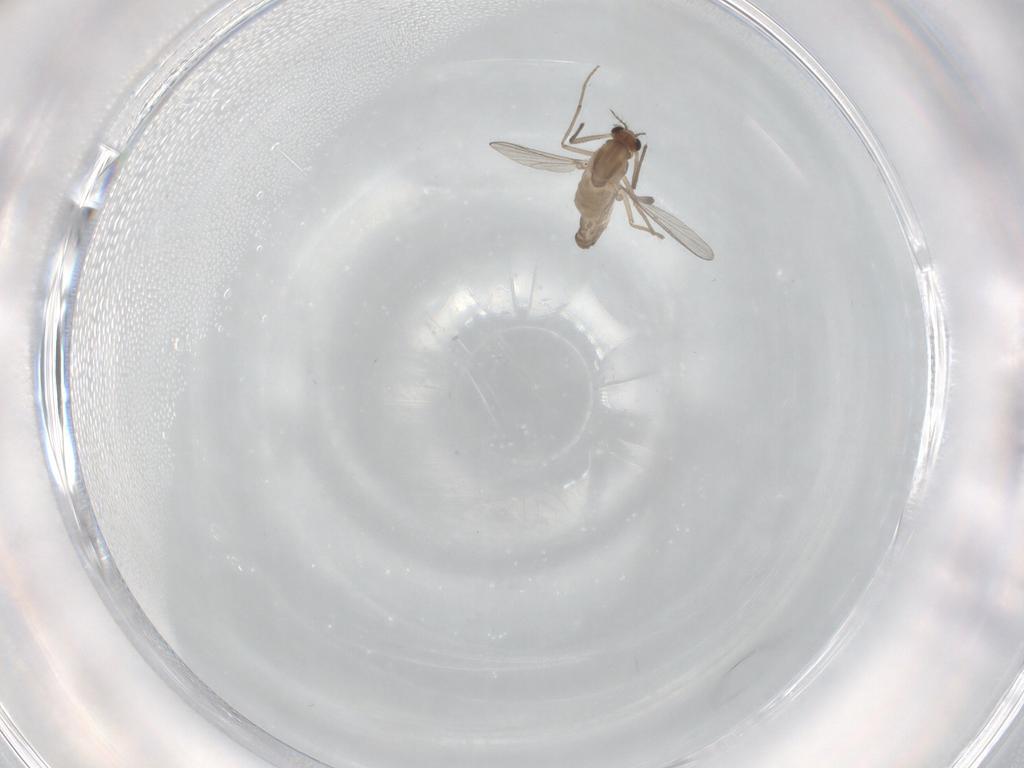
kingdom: Animalia
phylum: Arthropoda
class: Insecta
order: Diptera
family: Chironomidae
